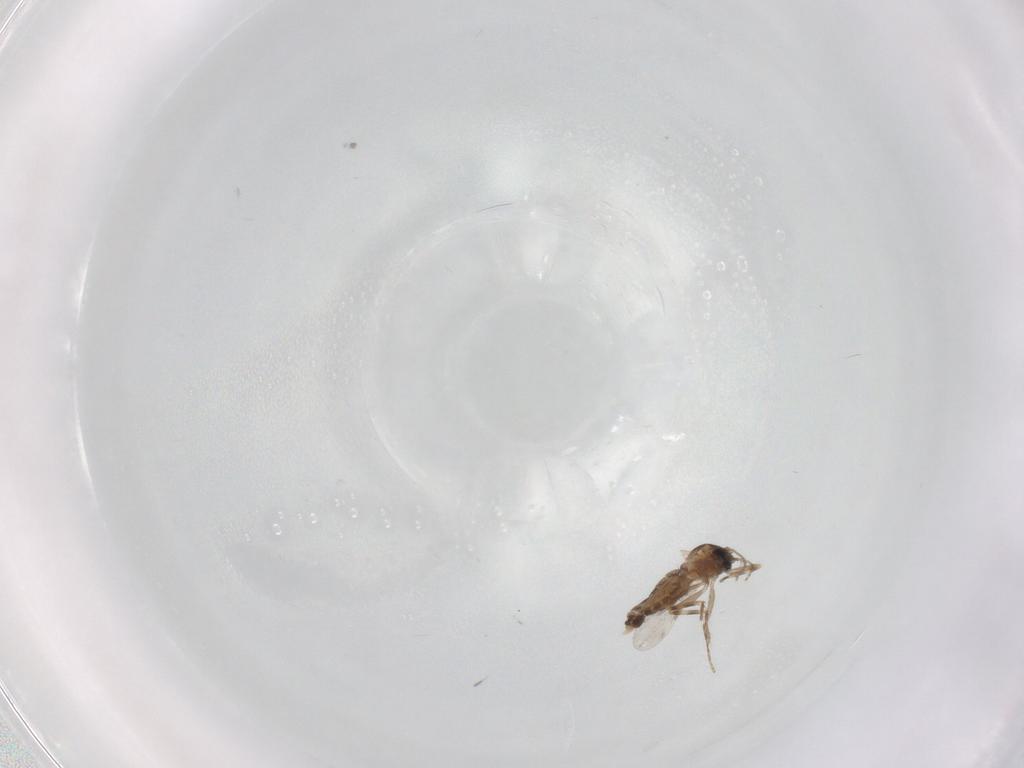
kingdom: Animalia
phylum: Arthropoda
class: Insecta
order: Diptera
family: Ceratopogonidae
